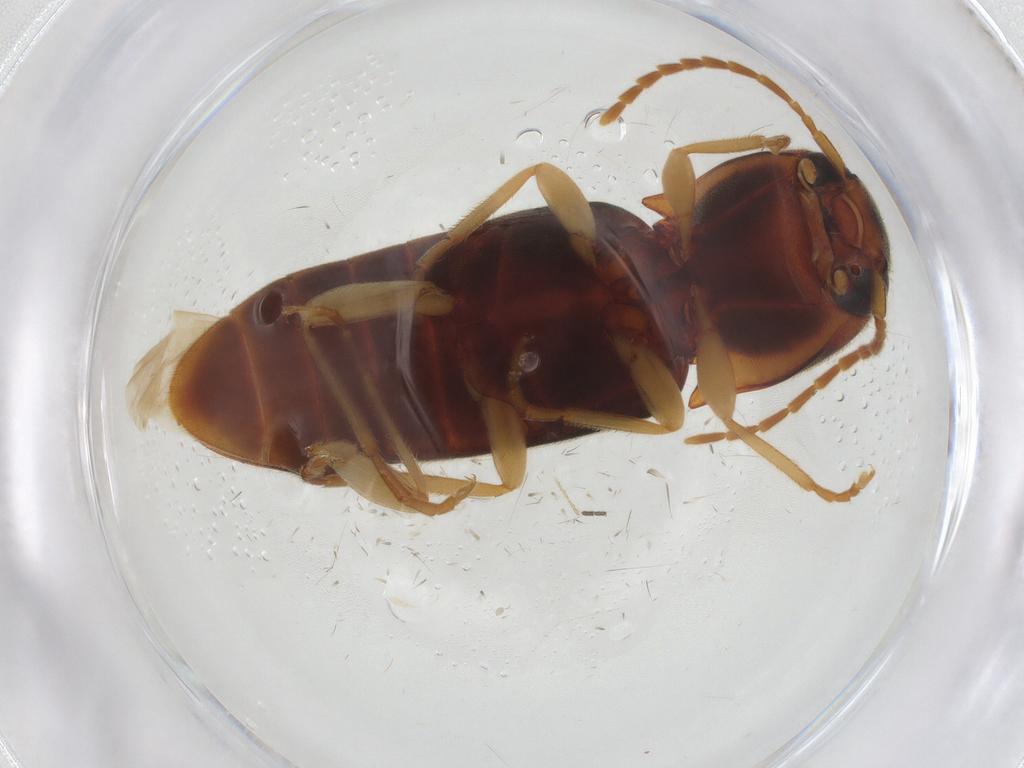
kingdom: Animalia
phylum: Arthropoda
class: Insecta
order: Coleoptera
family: Elateridae
